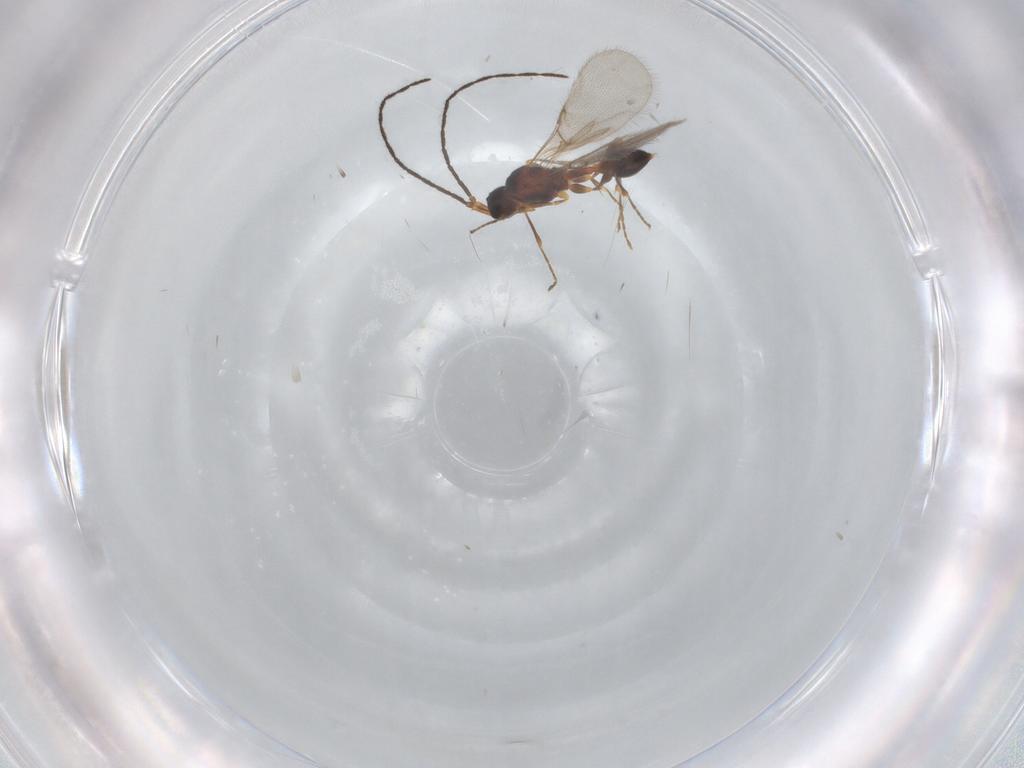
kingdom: Animalia
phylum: Arthropoda
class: Insecta
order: Hymenoptera
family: Diapriidae
